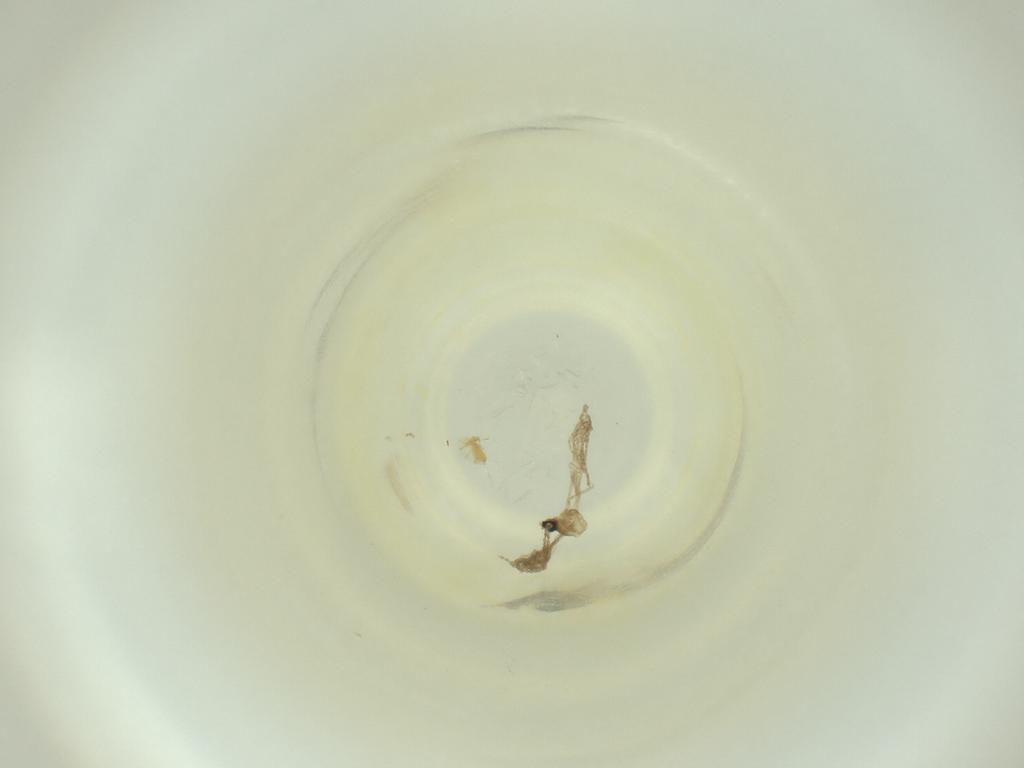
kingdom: Animalia
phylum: Arthropoda
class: Insecta
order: Diptera
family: Cecidomyiidae
